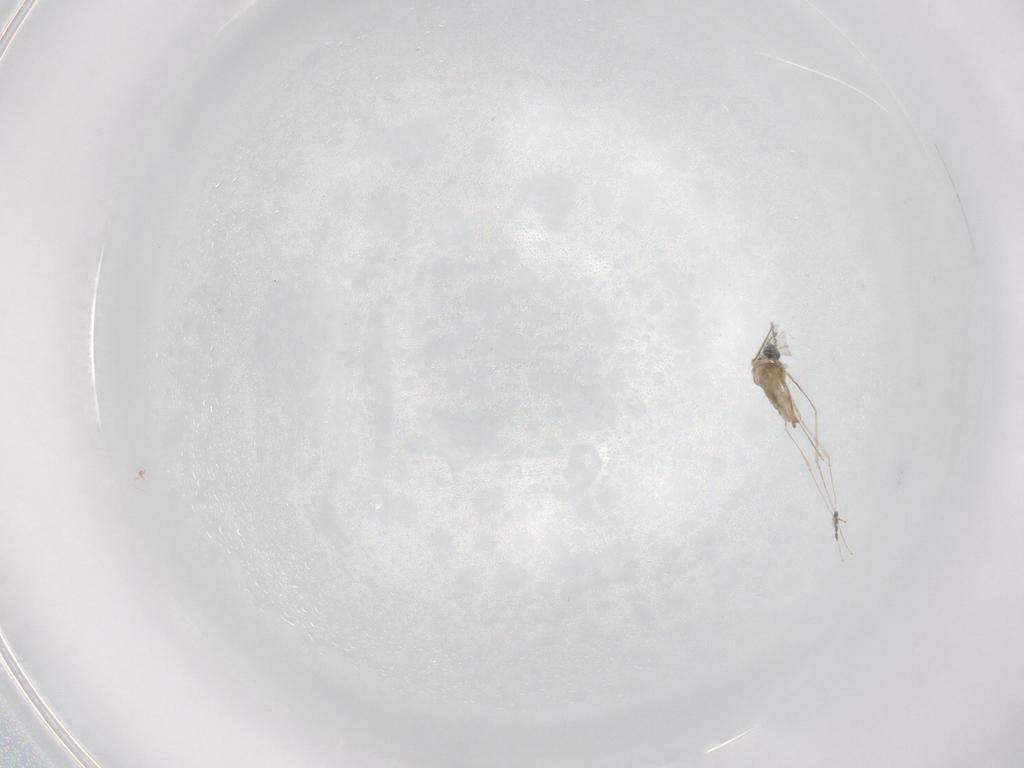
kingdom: Animalia
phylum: Arthropoda
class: Insecta
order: Diptera
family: Cecidomyiidae
